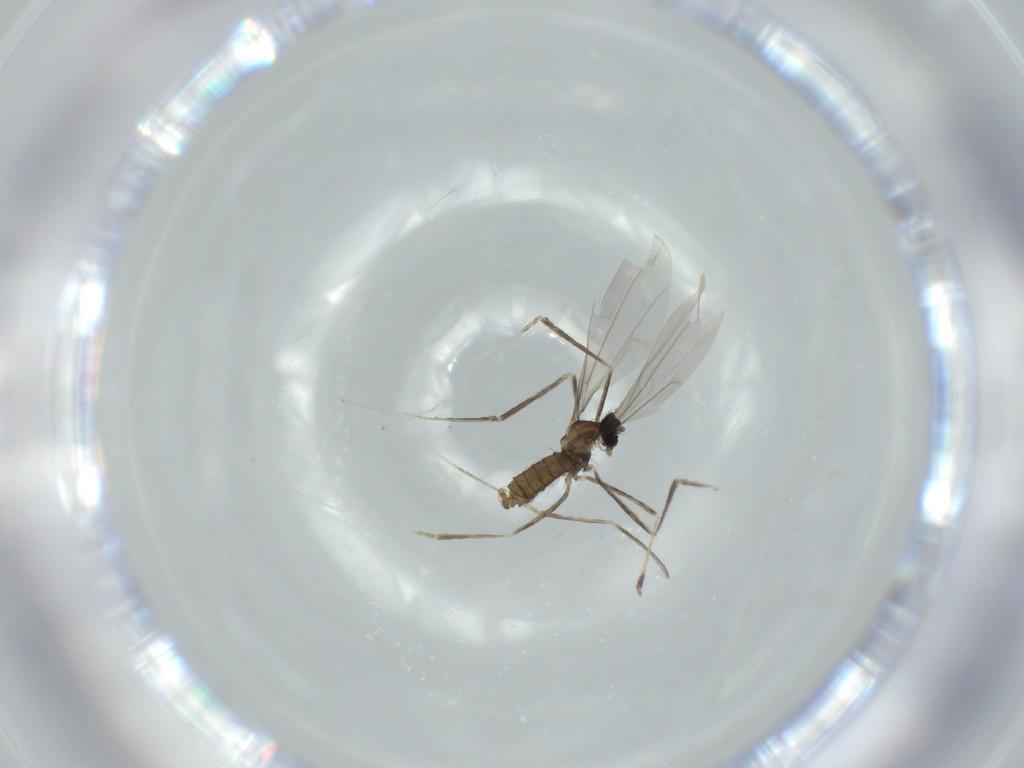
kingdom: Animalia
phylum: Arthropoda
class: Insecta
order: Diptera
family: Cecidomyiidae
